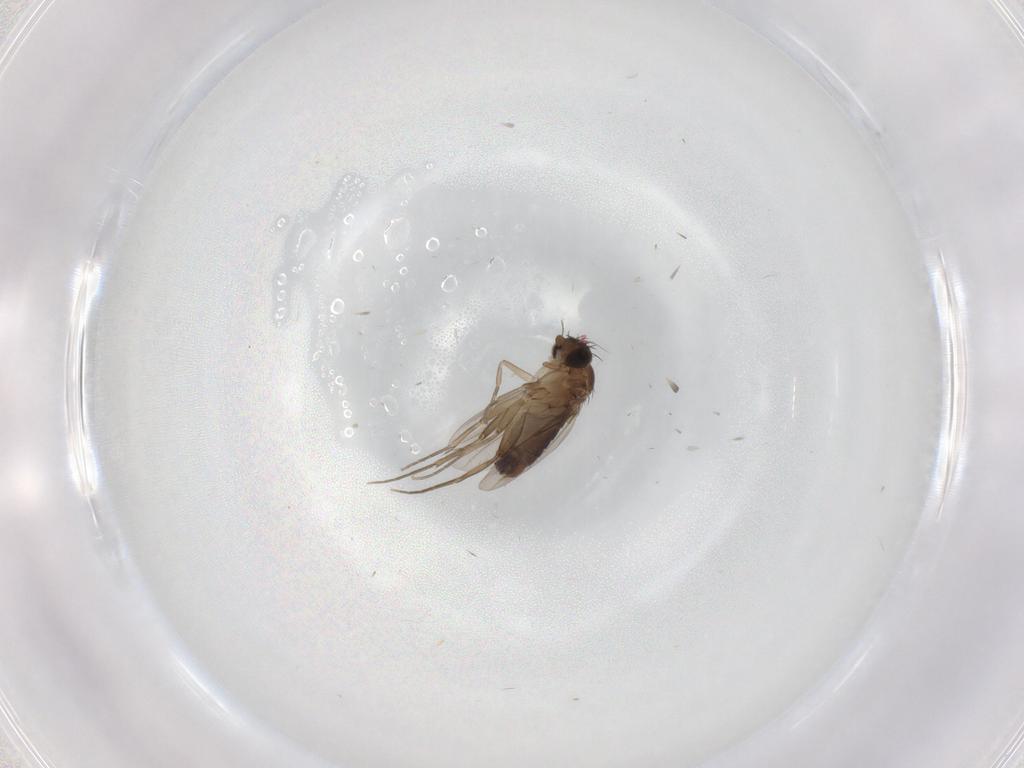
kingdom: Animalia
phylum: Arthropoda
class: Insecta
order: Diptera
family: Phoridae
